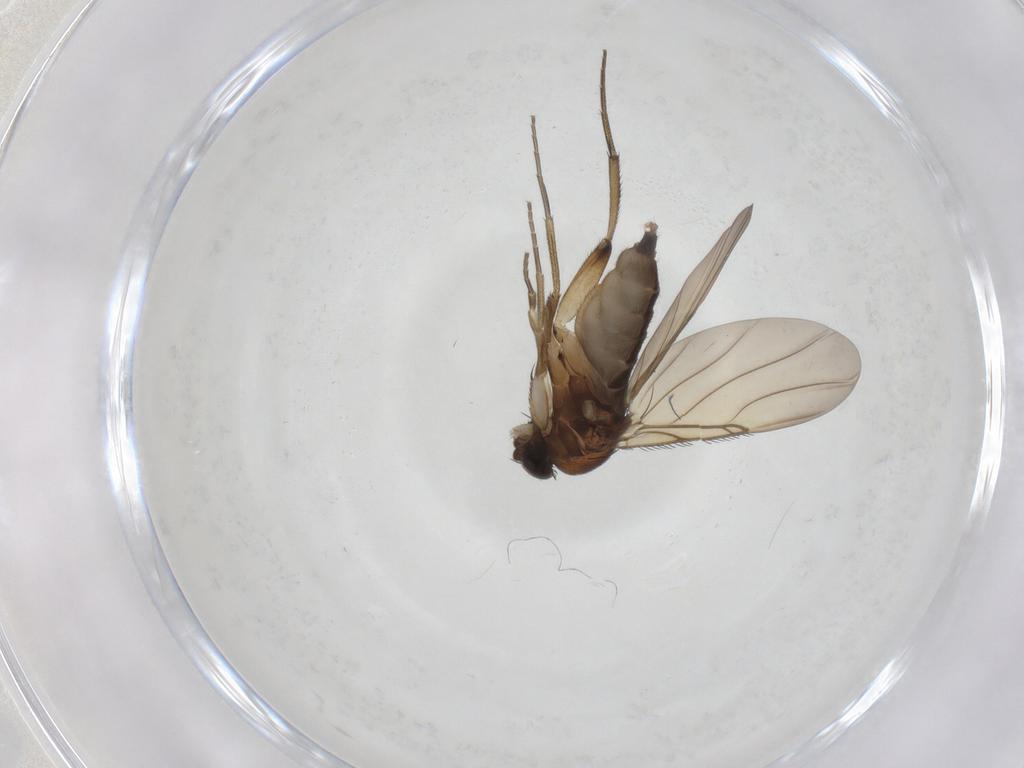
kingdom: Animalia
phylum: Arthropoda
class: Insecta
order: Diptera
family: Phoridae
